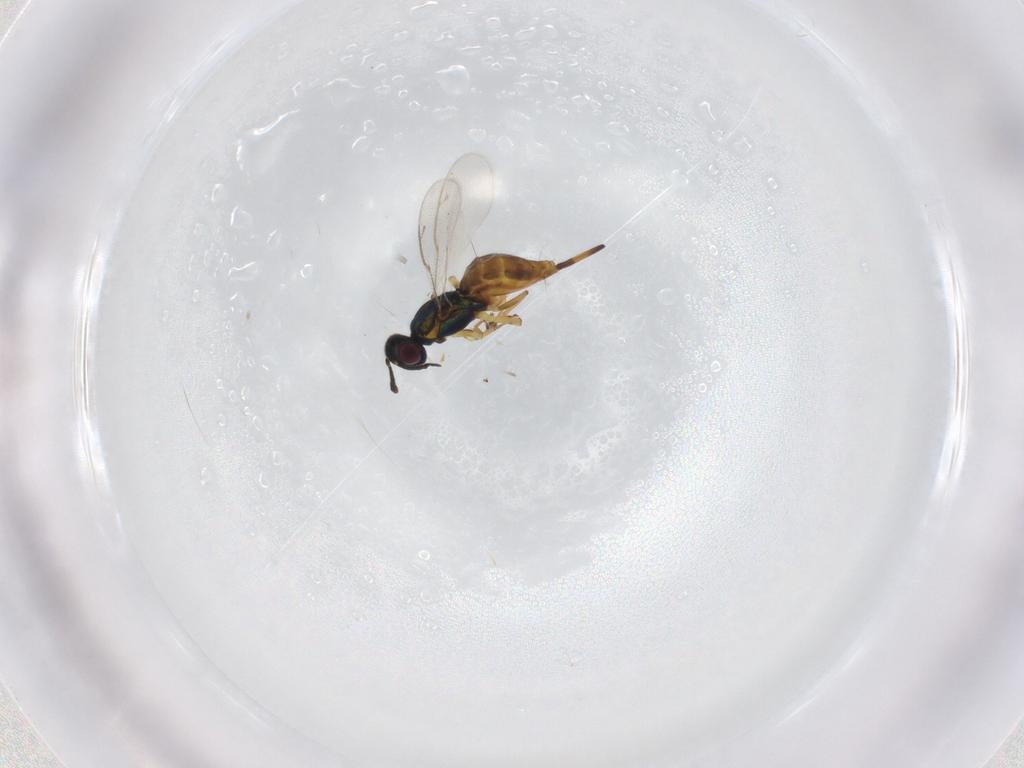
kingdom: Animalia
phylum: Arthropoda
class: Insecta
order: Hymenoptera
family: Eupelmidae
